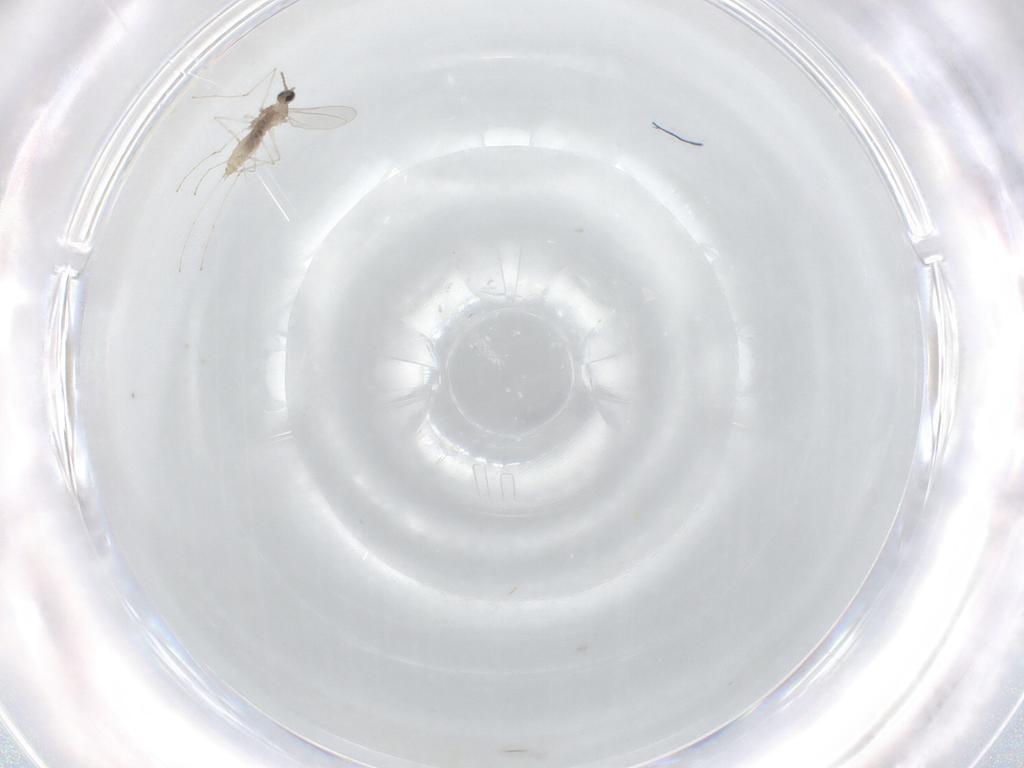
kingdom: Animalia
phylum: Arthropoda
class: Insecta
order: Diptera
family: Cecidomyiidae
